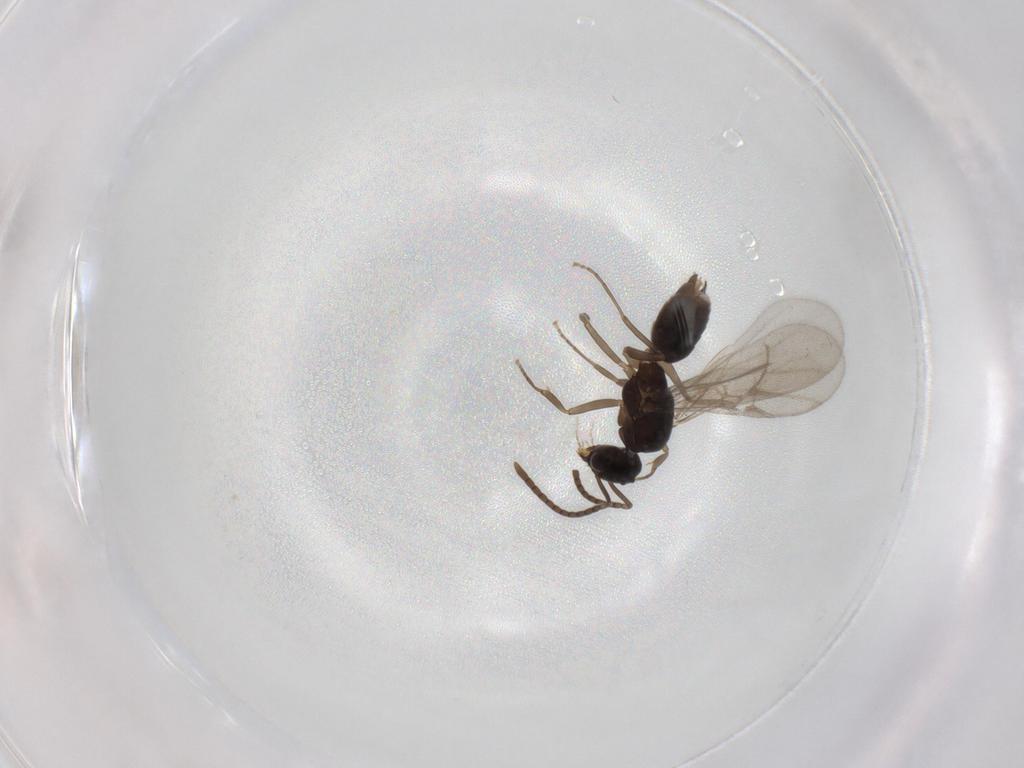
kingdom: Animalia
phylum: Arthropoda
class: Insecta
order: Hymenoptera
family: Formicidae
